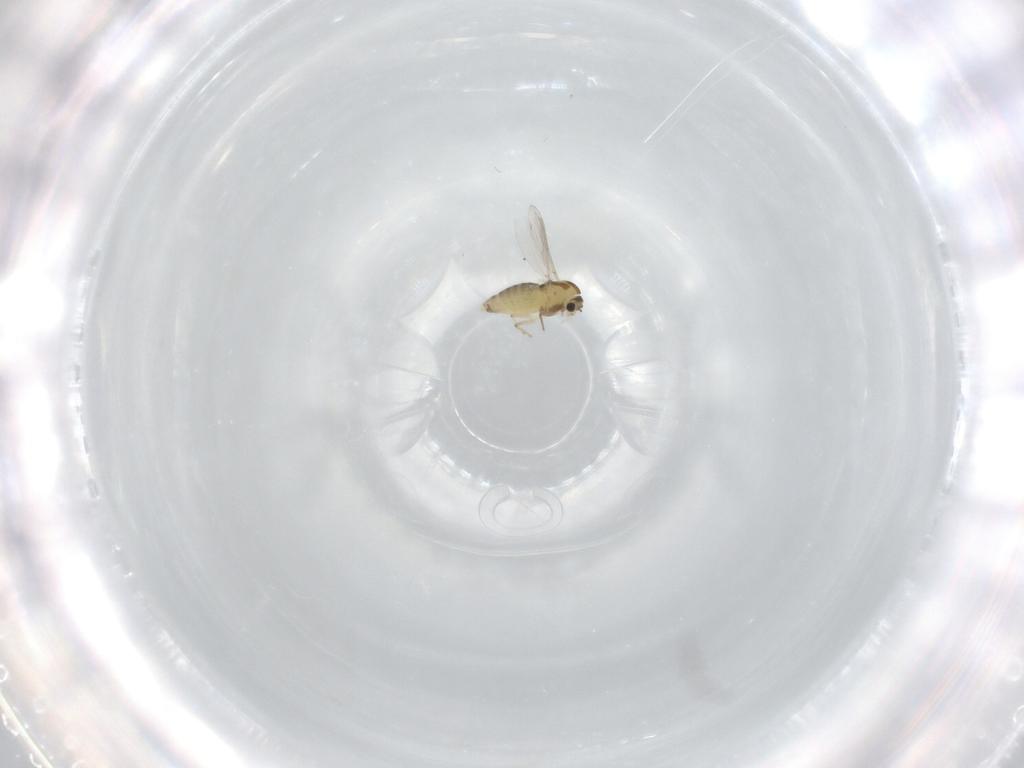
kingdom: Animalia
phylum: Arthropoda
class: Insecta
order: Diptera
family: Chironomidae
